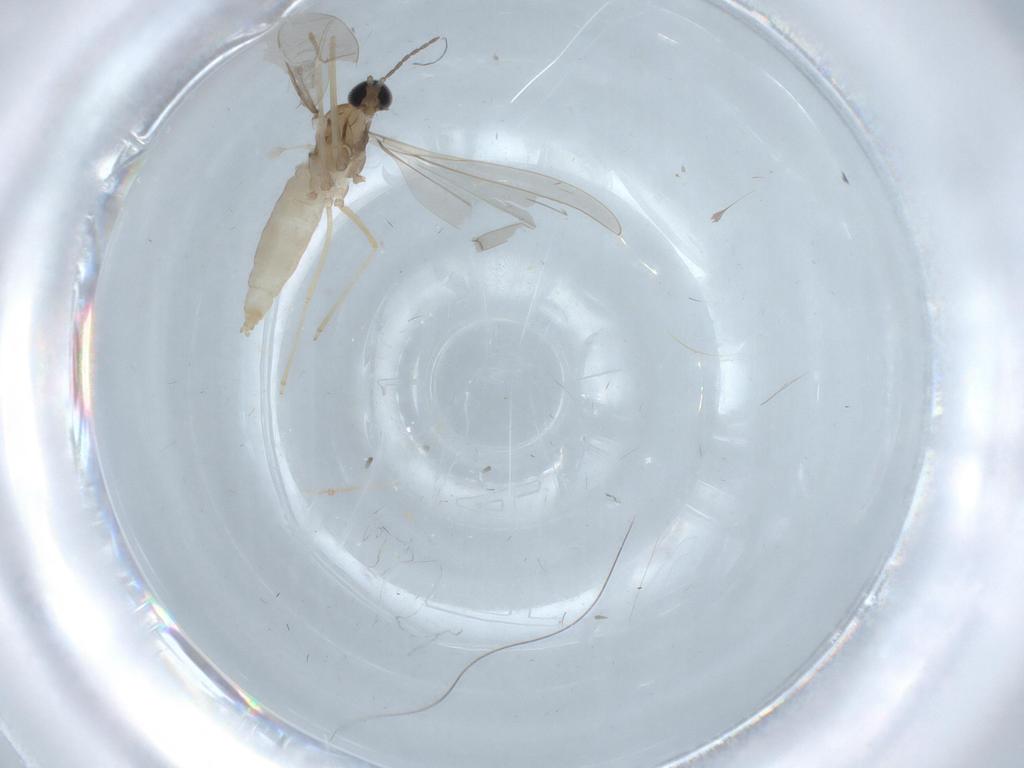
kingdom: Animalia
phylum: Arthropoda
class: Insecta
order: Diptera
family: Cecidomyiidae
